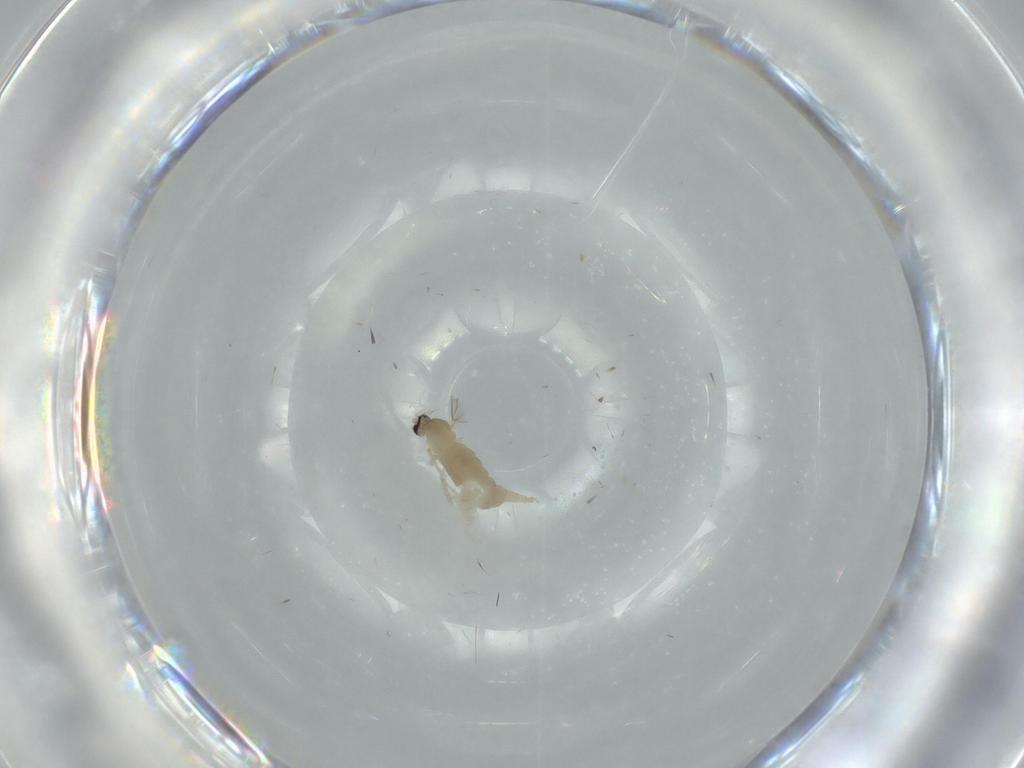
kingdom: Animalia
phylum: Arthropoda
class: Insecta
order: Diptera
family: Cecidomyiidae
